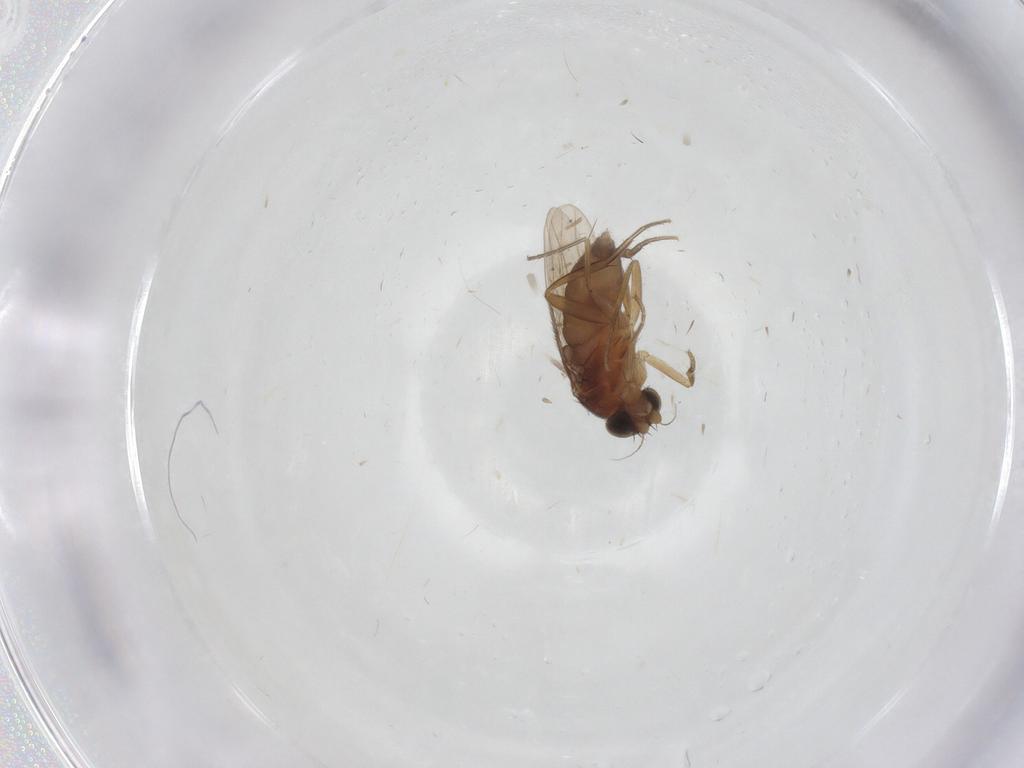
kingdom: Animalia
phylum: Arthropoda
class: Insecta
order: Diptera
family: Phoridae
